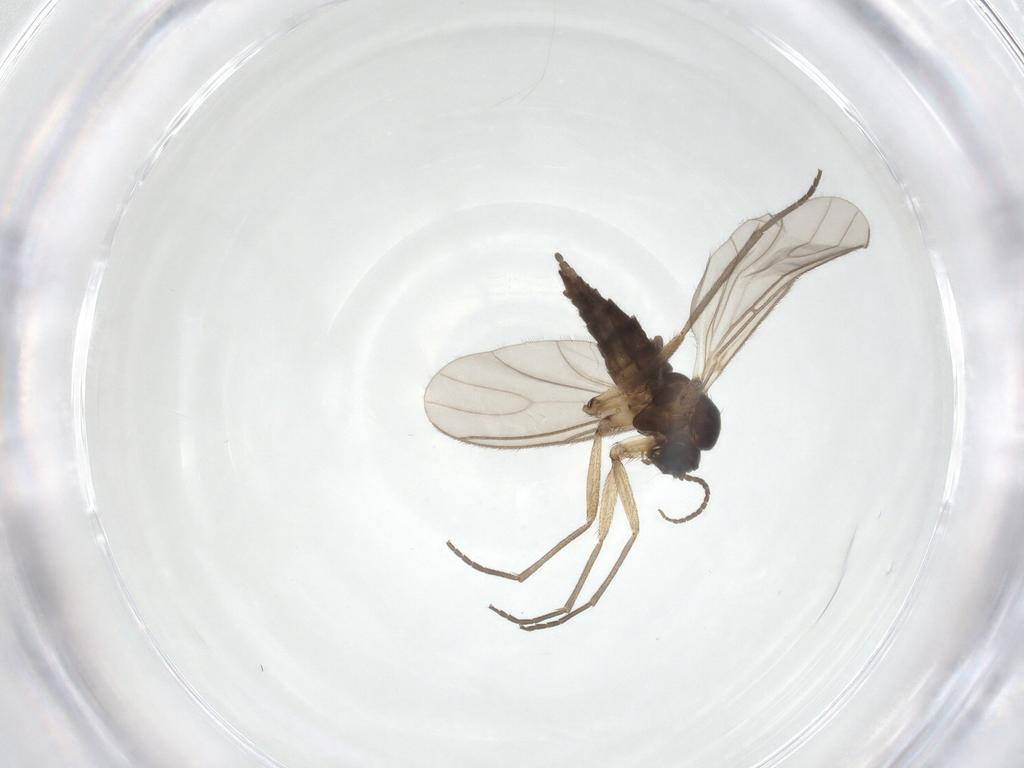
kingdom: Animalia
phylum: Arthropoda
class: Insecta
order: Diptera
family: Sciaridae
